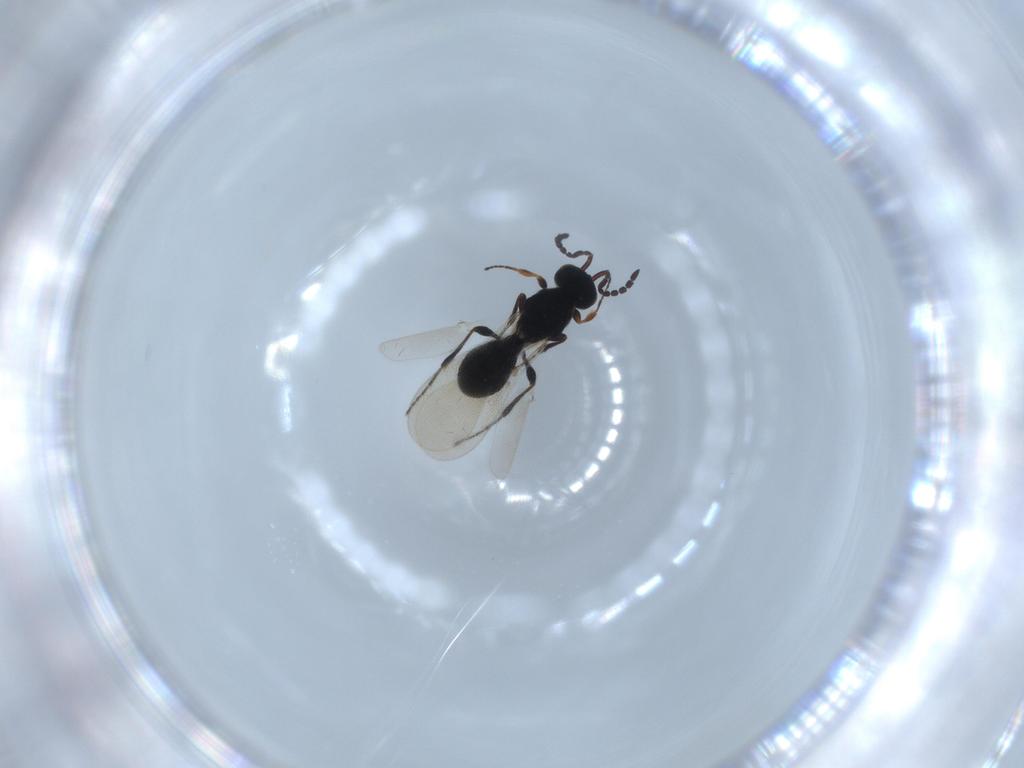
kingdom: Animalia
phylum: Arthropoda
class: Insecta
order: Hymenoptera
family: Platygastridae
